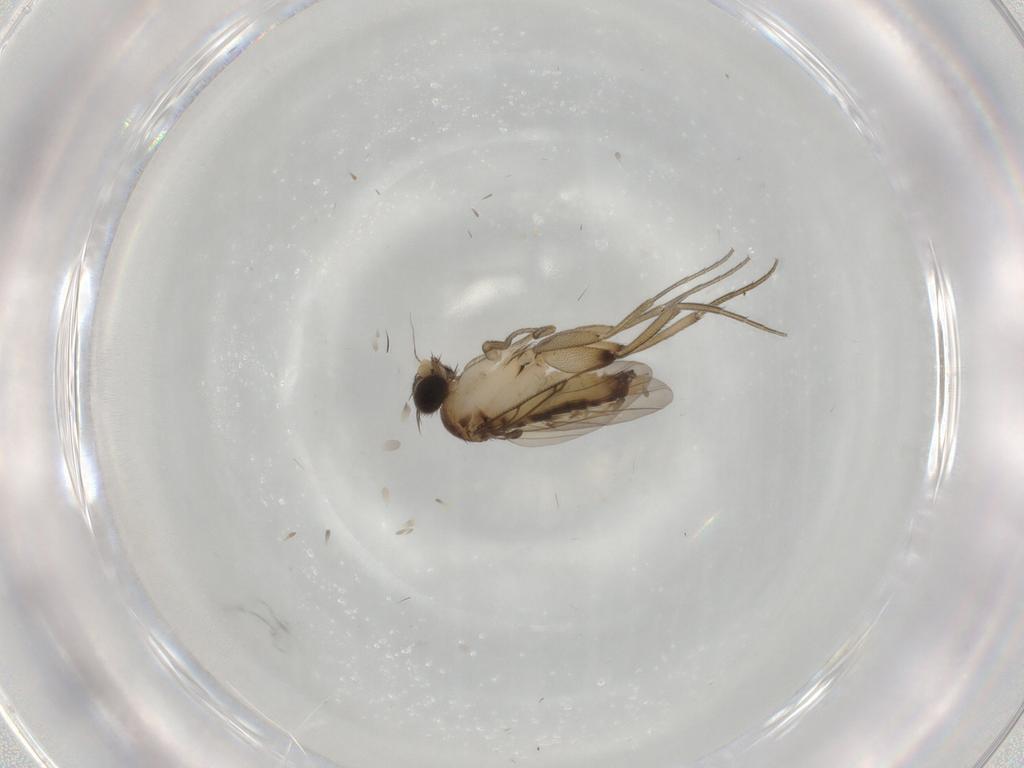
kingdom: Animalia
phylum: Arthropoda
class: Insecta
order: Diptera
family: Phoridae
